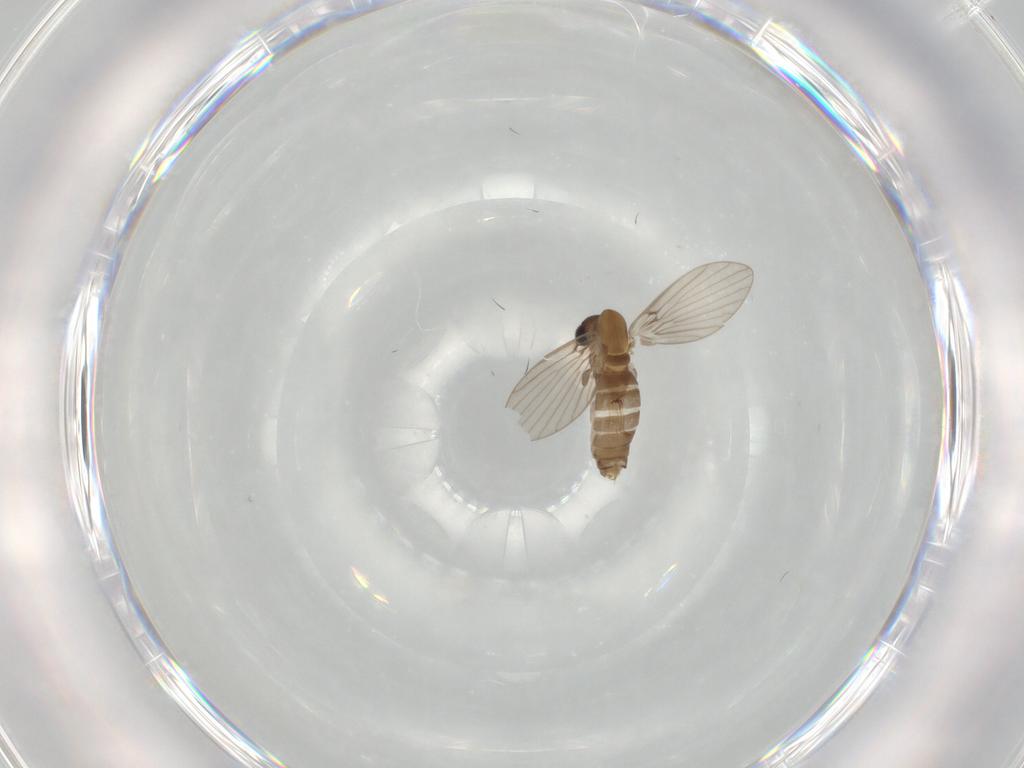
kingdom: Animalia
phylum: Arthropoda
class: Insecta
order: Diptera
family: Psychodidae
